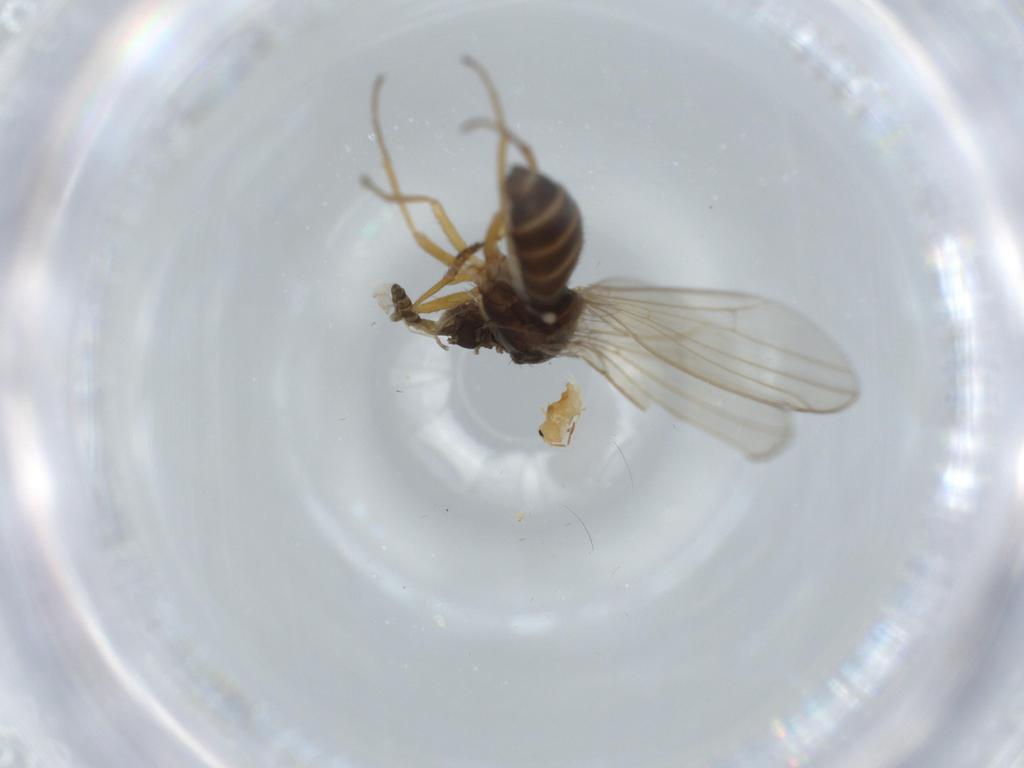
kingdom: Animalia
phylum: Arthropoda
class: Insecta
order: Diptera
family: Drosophilidae
